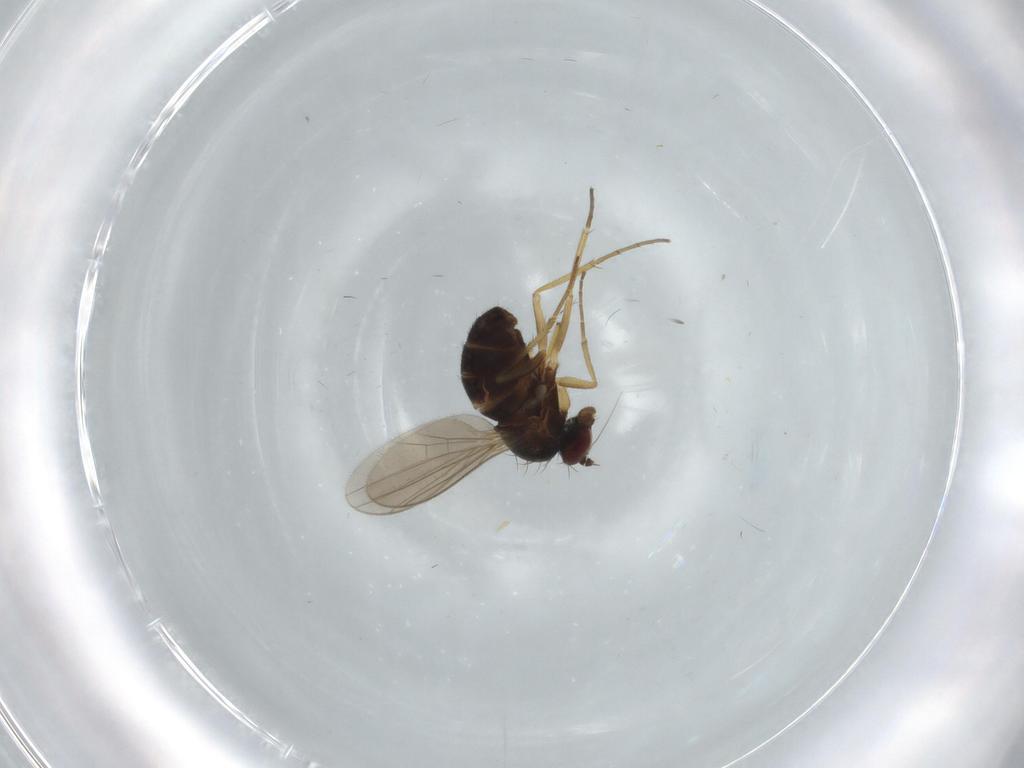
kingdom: Animalia
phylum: Arthropoda
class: Insecta
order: Diptera
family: Dolichopodidae
